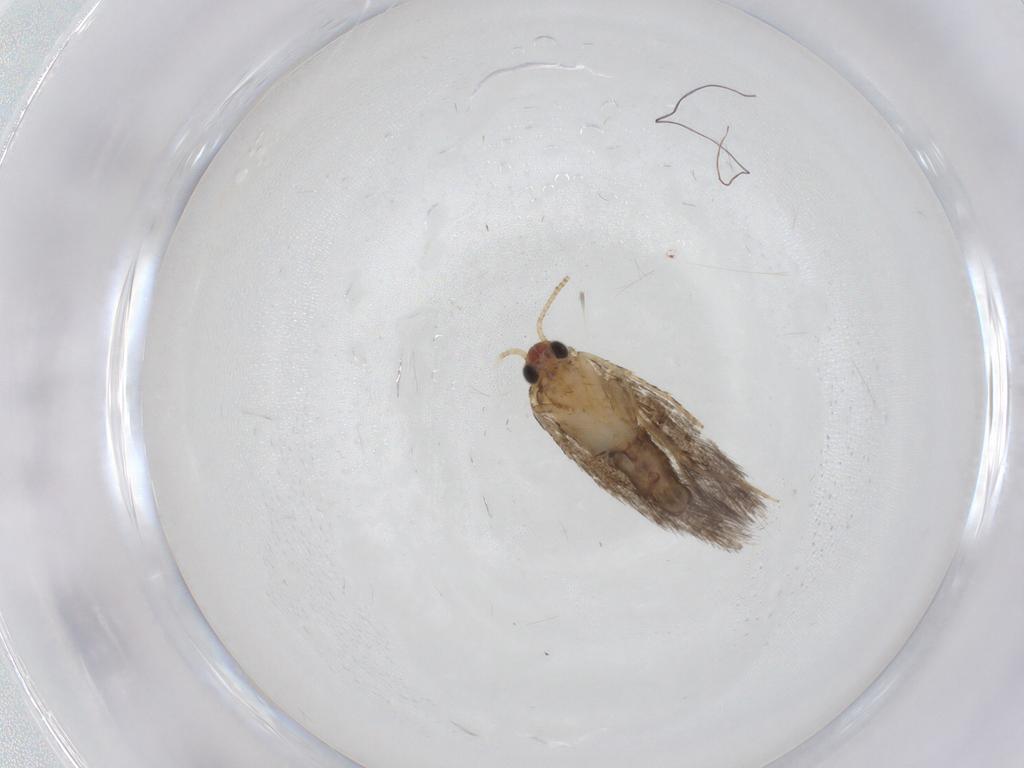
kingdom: Animalia
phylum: Arthropoda
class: Insecta
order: Lepidoptera
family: Meessiidae
